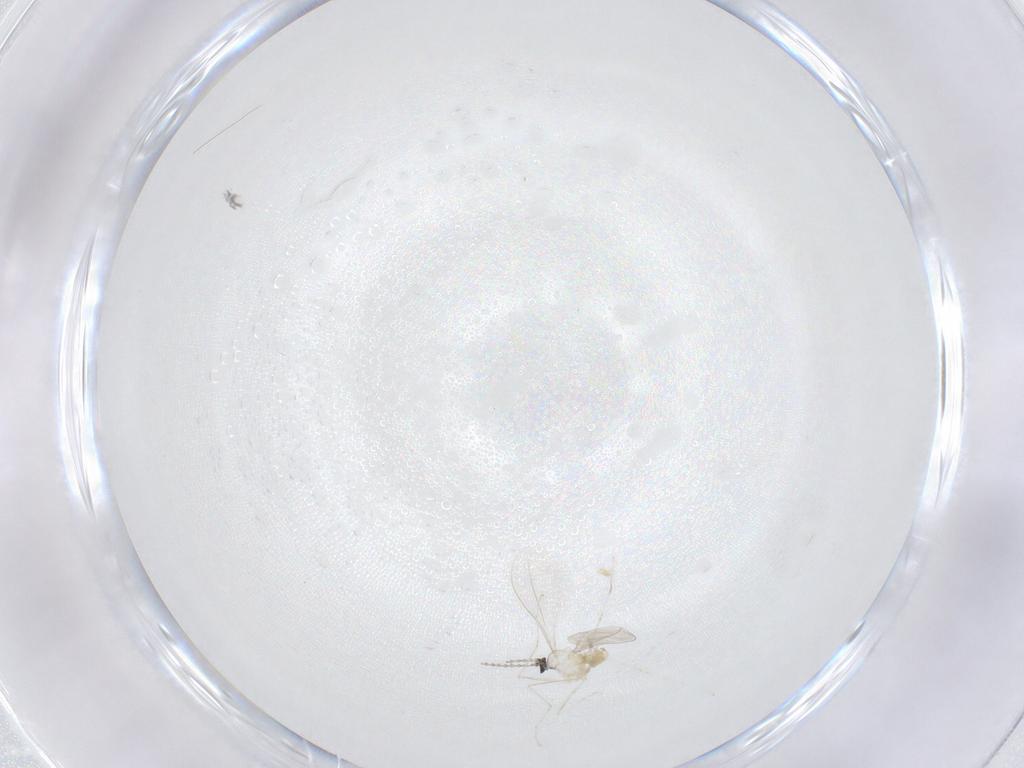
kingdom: Animalia
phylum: Arthropoda
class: Insecta
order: Diptera
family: Cecidomyiidae
